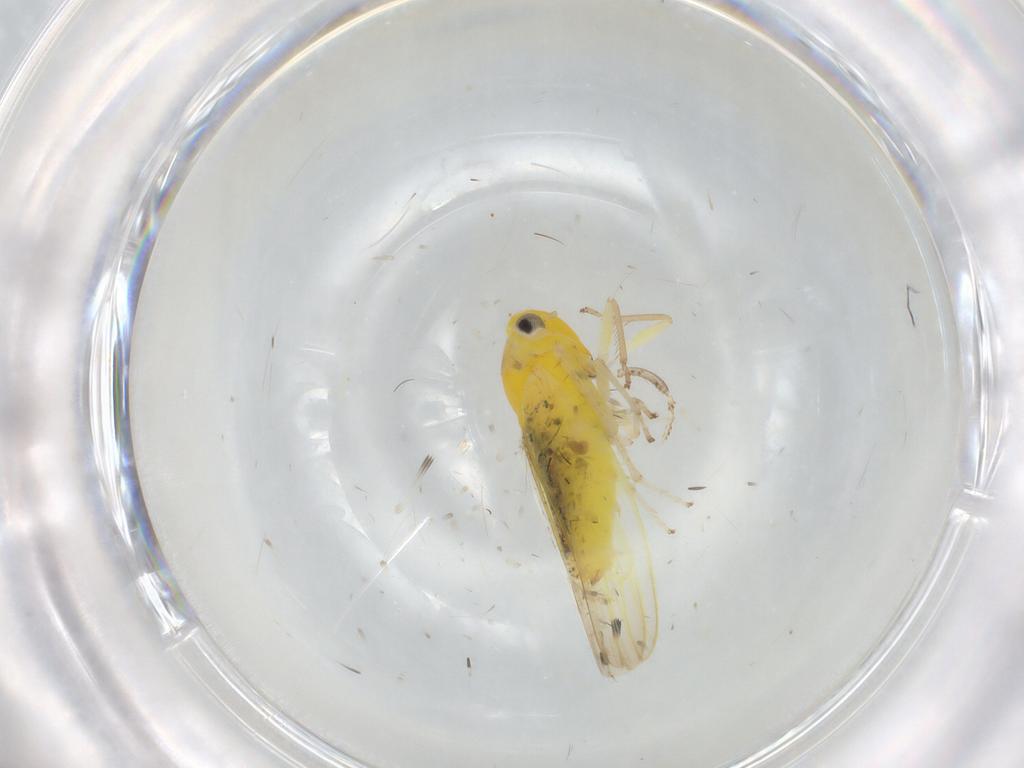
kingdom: Animalia
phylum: Arthropoda
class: Insecta
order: Hemiptera
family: Cicadellidae
